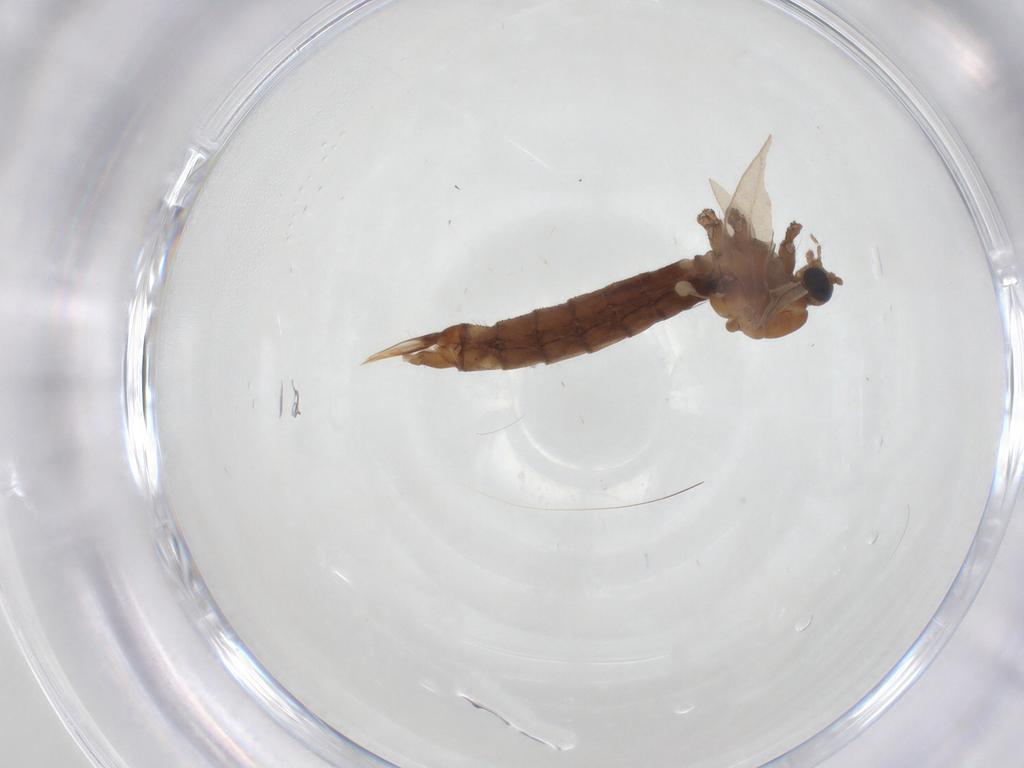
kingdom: Animalia
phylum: Arthropoda
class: Insecta
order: Diptera
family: Limoniidae
